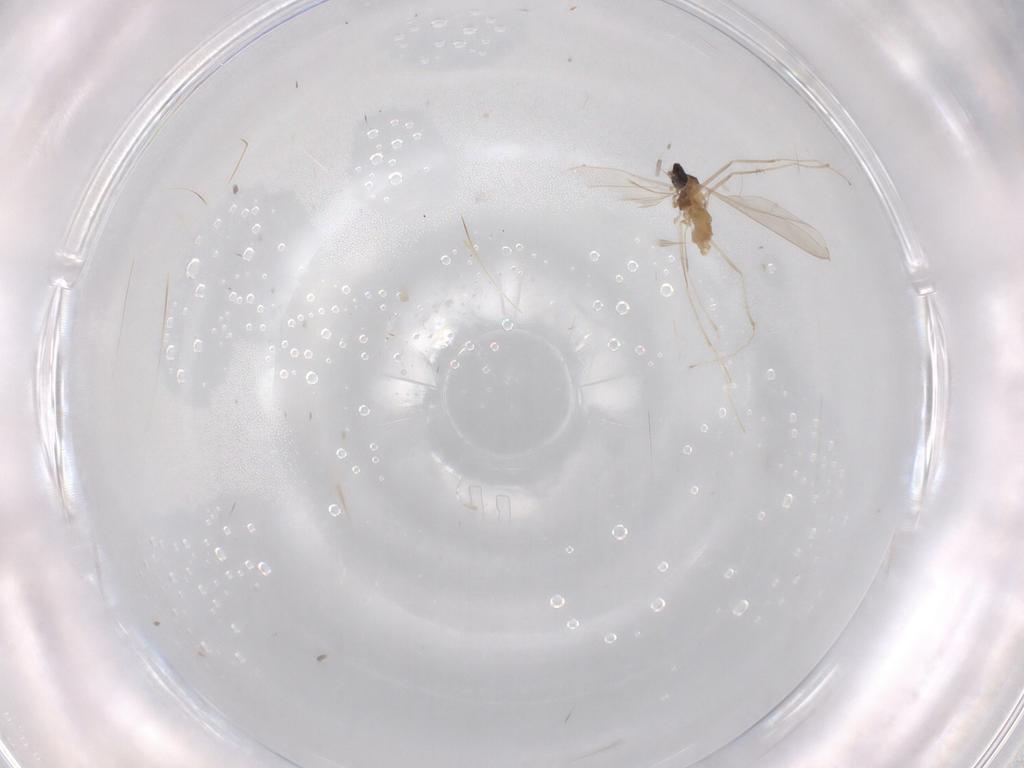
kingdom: Animalia
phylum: Arthropoda
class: Insecta
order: Diptera
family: Cecidomyiidae
